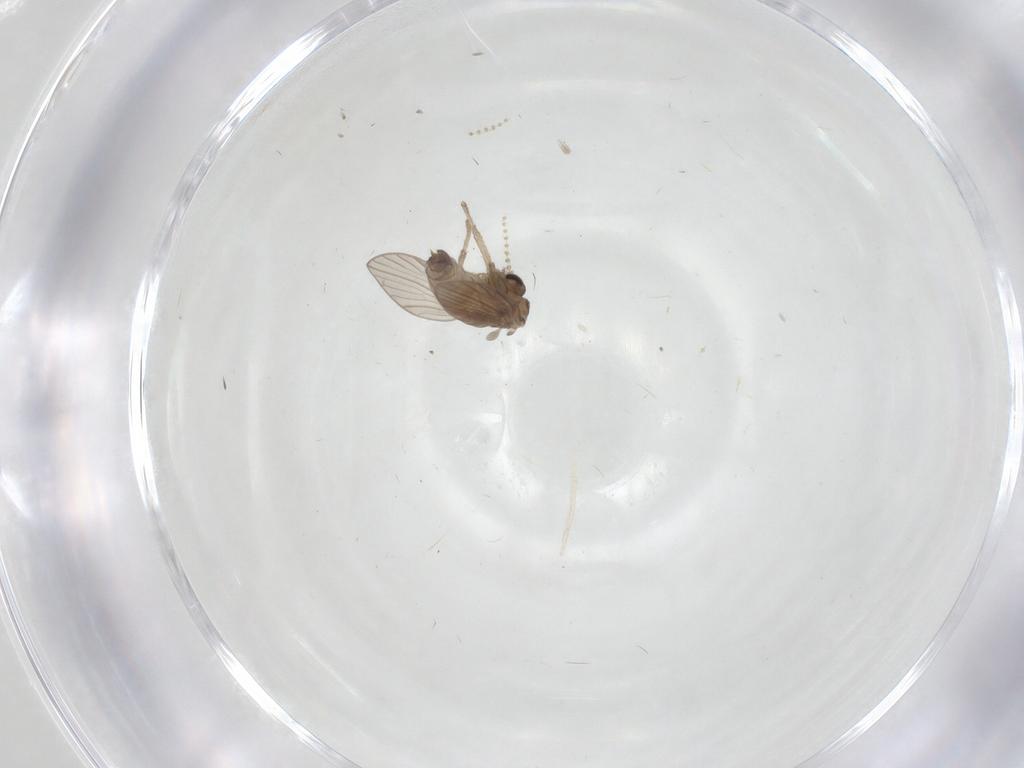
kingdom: Animalia
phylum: Arthropoda
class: Insecta
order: Diptera
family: Psychodidae
